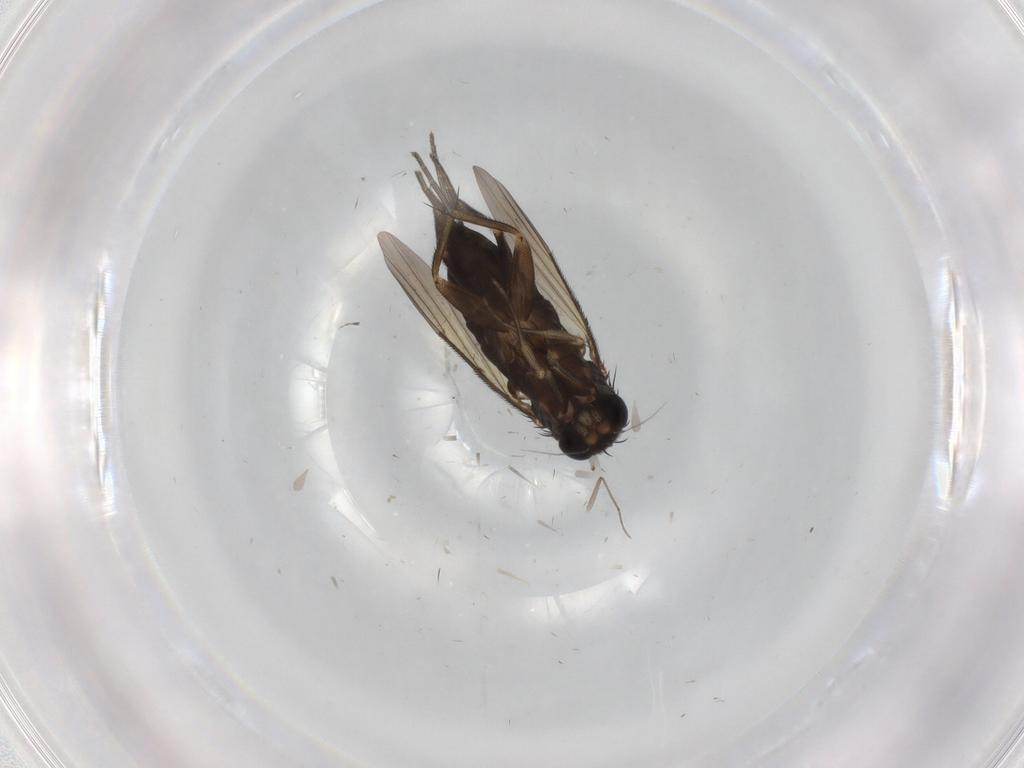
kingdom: Animalia
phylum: Arthropoda
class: Insecta
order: Diptera
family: Phoridae
